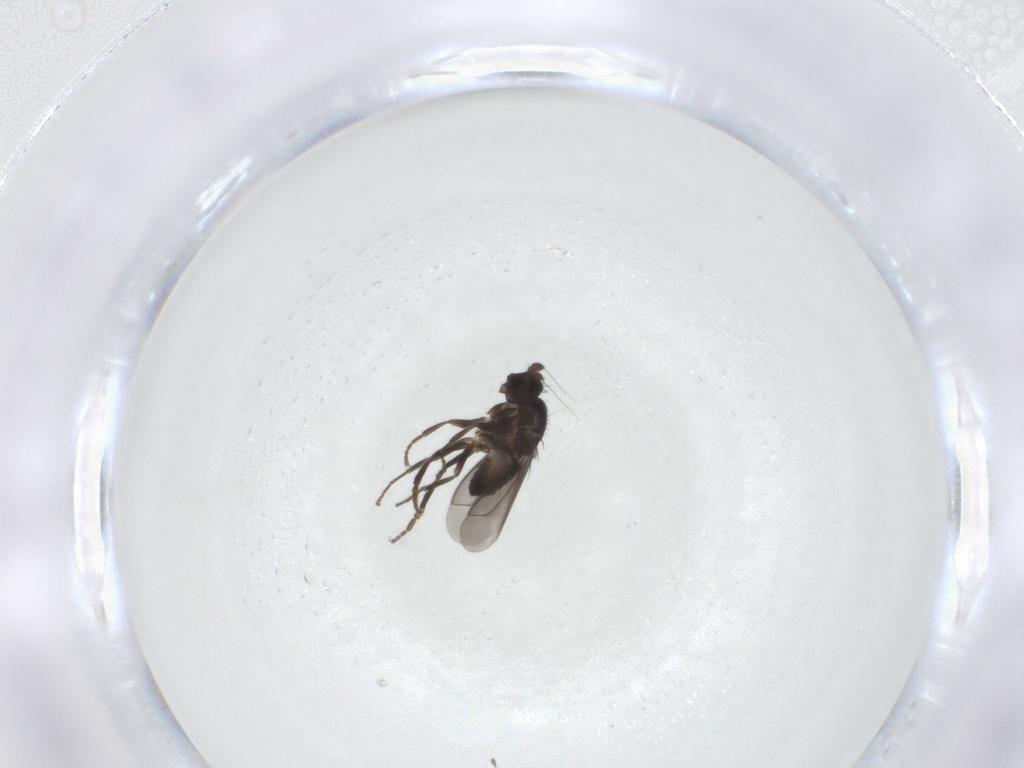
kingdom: Animalia
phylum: Arthropoda
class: Insecta
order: Diptera
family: Sphaeroceridae
